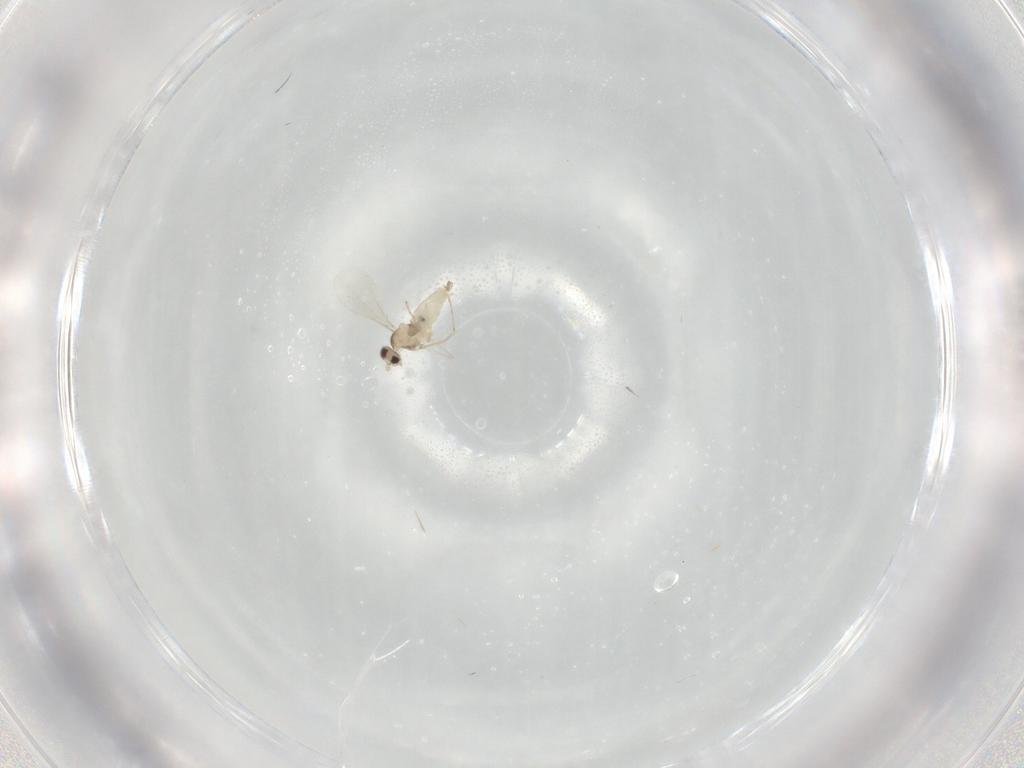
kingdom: Animalia
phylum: Arthropoda
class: Insecta
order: Diptera
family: Cecidomyiidae
